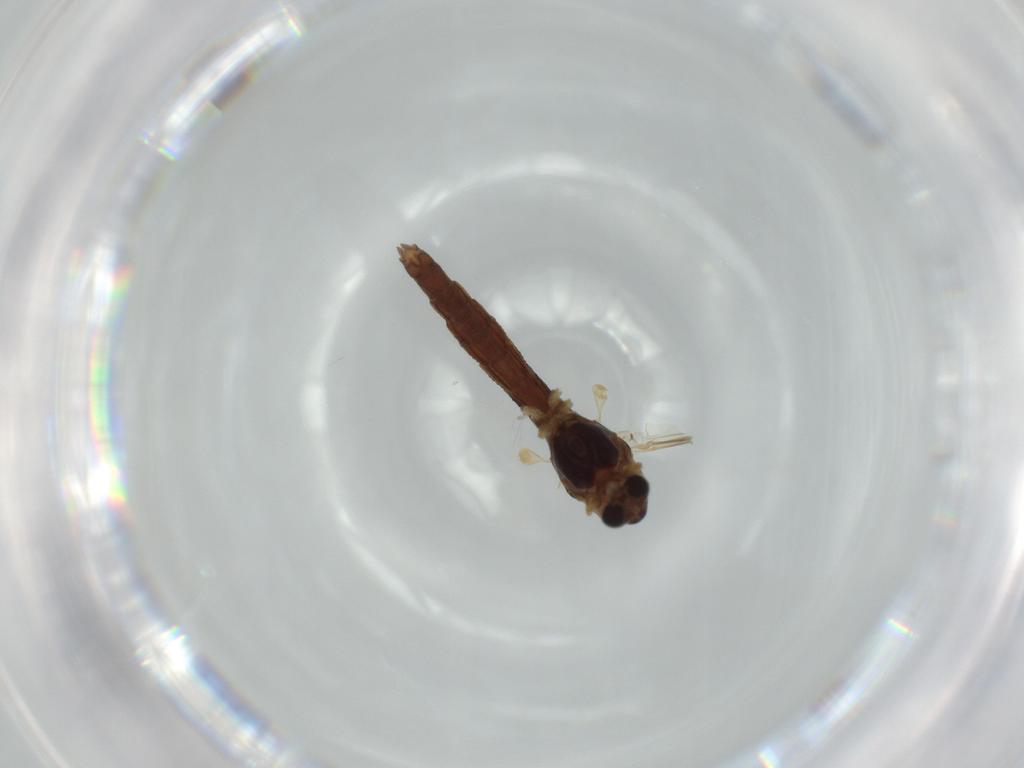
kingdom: Animalia
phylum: Arthropoda
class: Insecta
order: Diptera
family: Chironomidae
